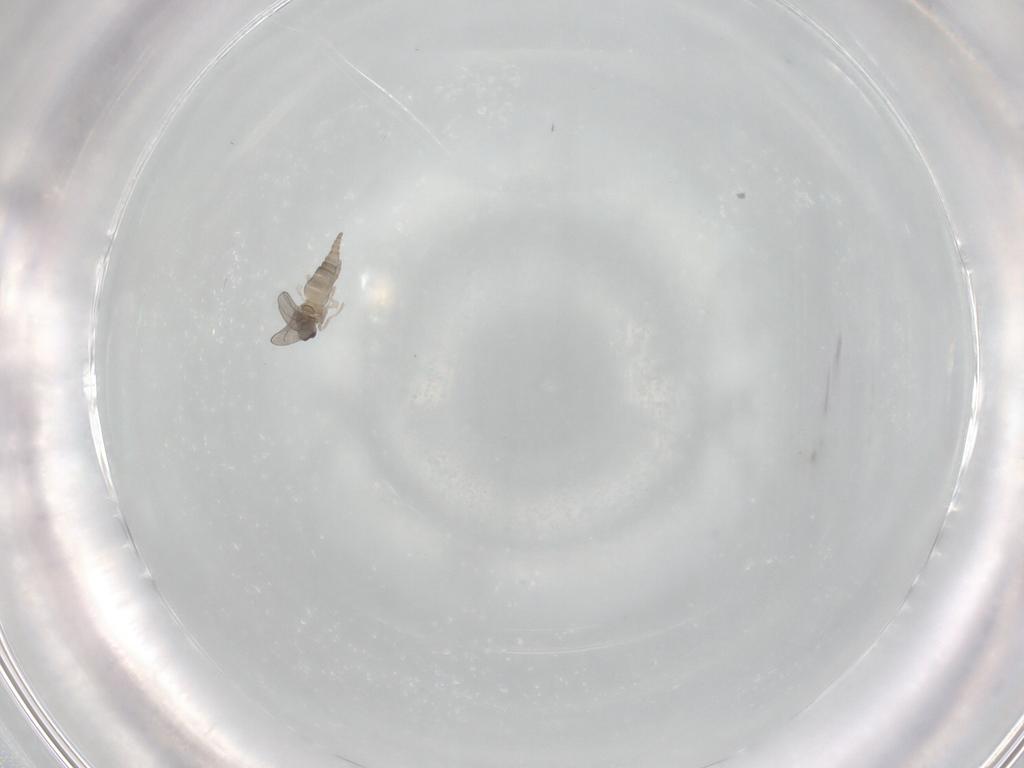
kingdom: Animalia
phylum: Arthropoda
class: Insecta
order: Diptera
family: Cecidomyiidae
